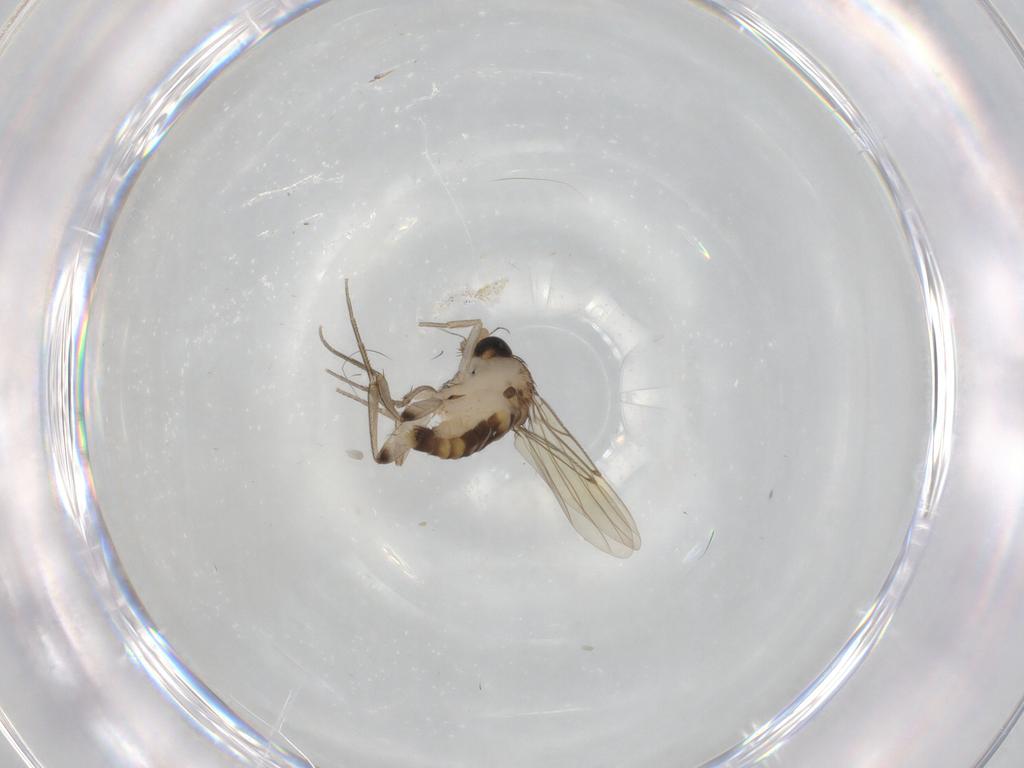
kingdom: Animalia
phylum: Arthropoda
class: Insecta
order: Diptera
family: Phoridae
